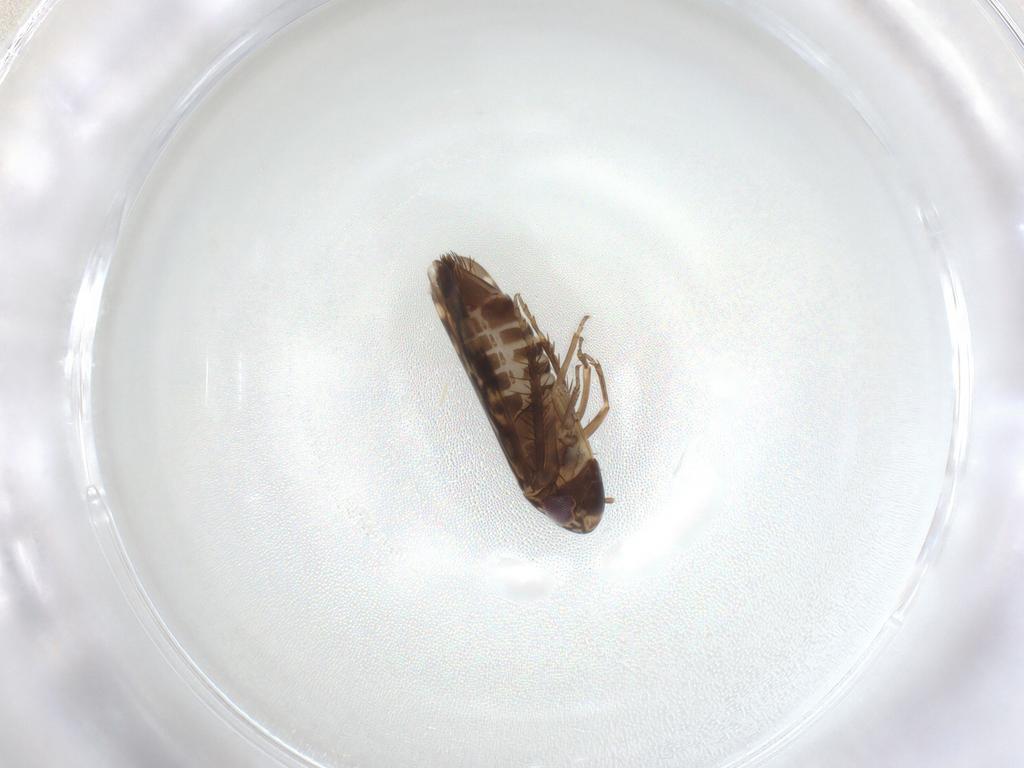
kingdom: Animalia
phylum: Arthropoda
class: Insecta
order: Hemiptera
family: Cicadellidae
